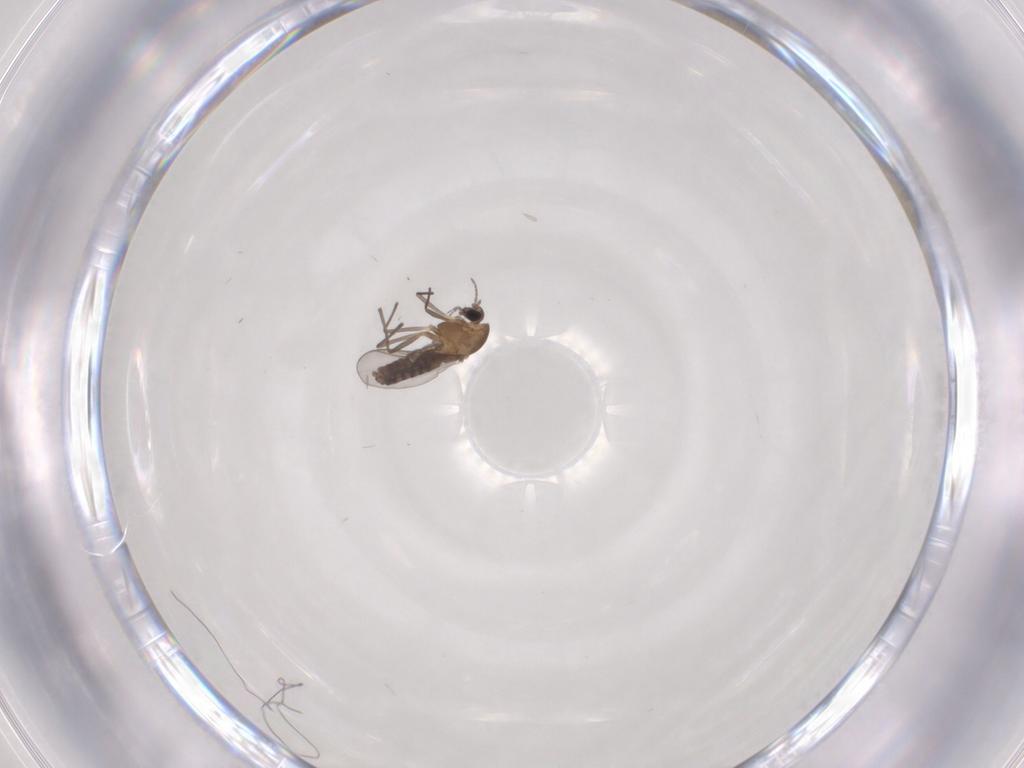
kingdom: Animalia
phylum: Arthropoda
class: Insecta
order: Diptera
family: Chironomidae
